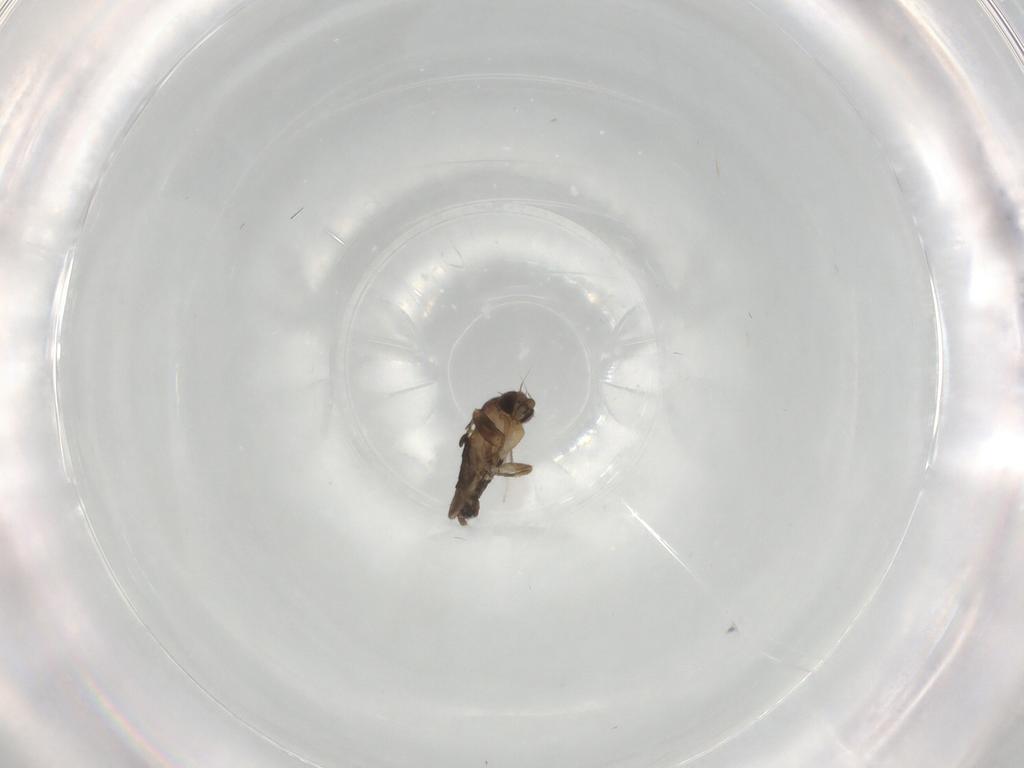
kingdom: Animalia
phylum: Arthropoda
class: Insecta
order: Diptera
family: Phoridae
